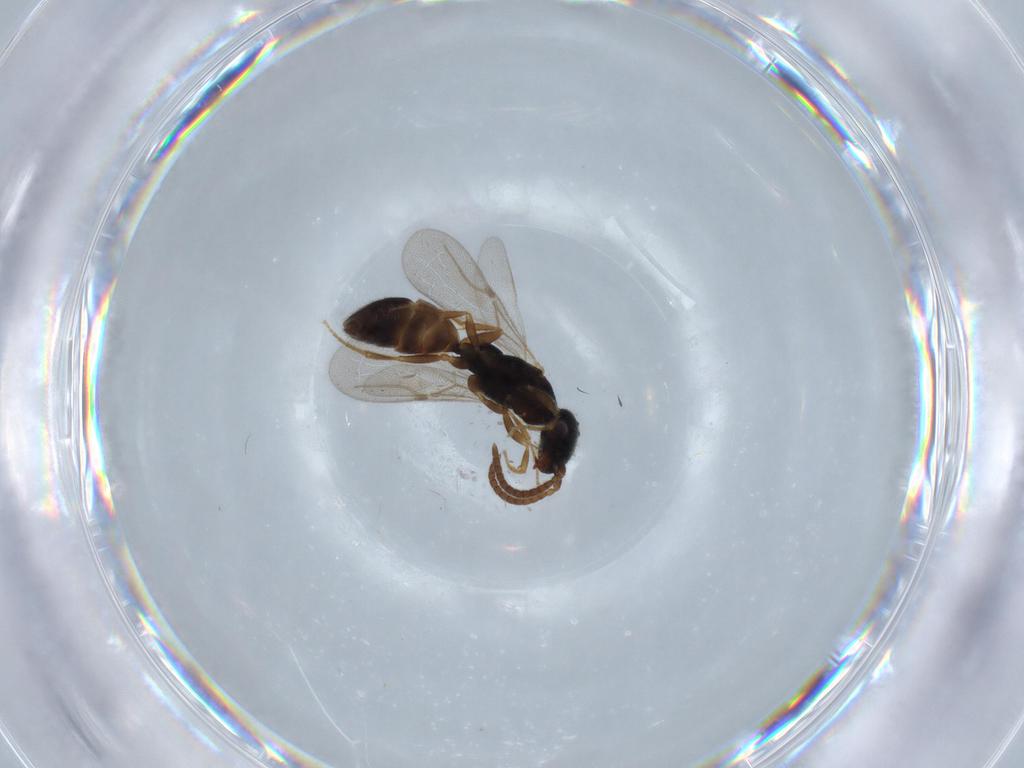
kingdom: Animalia
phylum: Arthropoda
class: Insecta
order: Hymenoptera
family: Bethylidae
